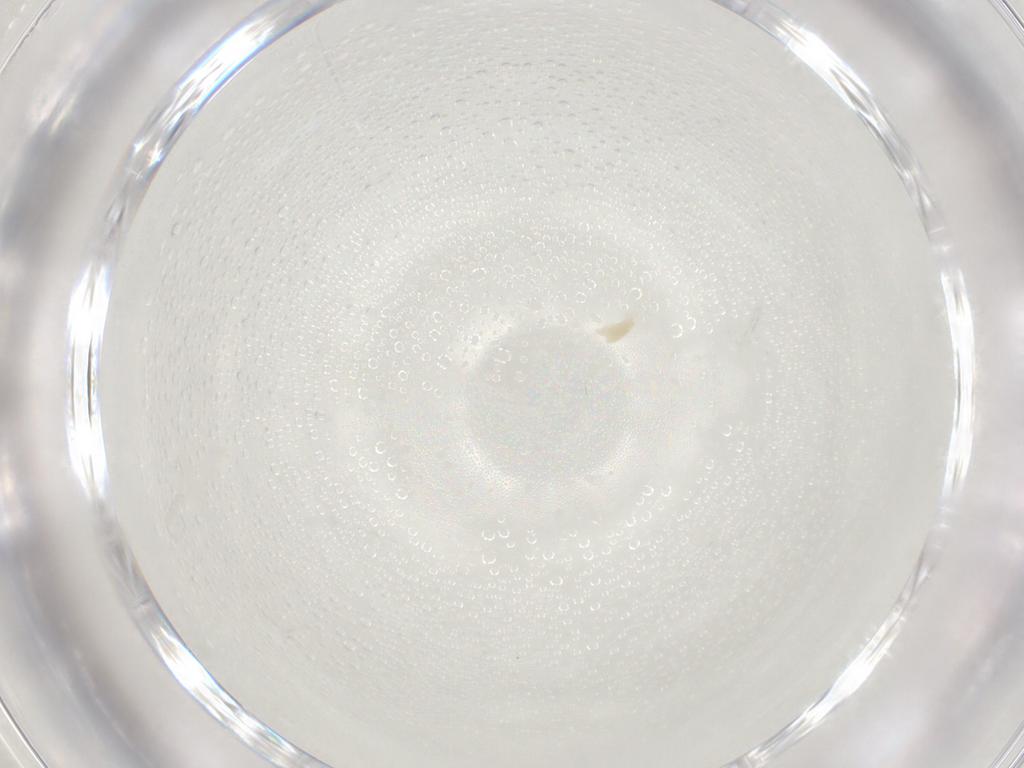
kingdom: Animalia
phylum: Arthropoda
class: Arachnida
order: Trombidiformes
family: Eupodidae
